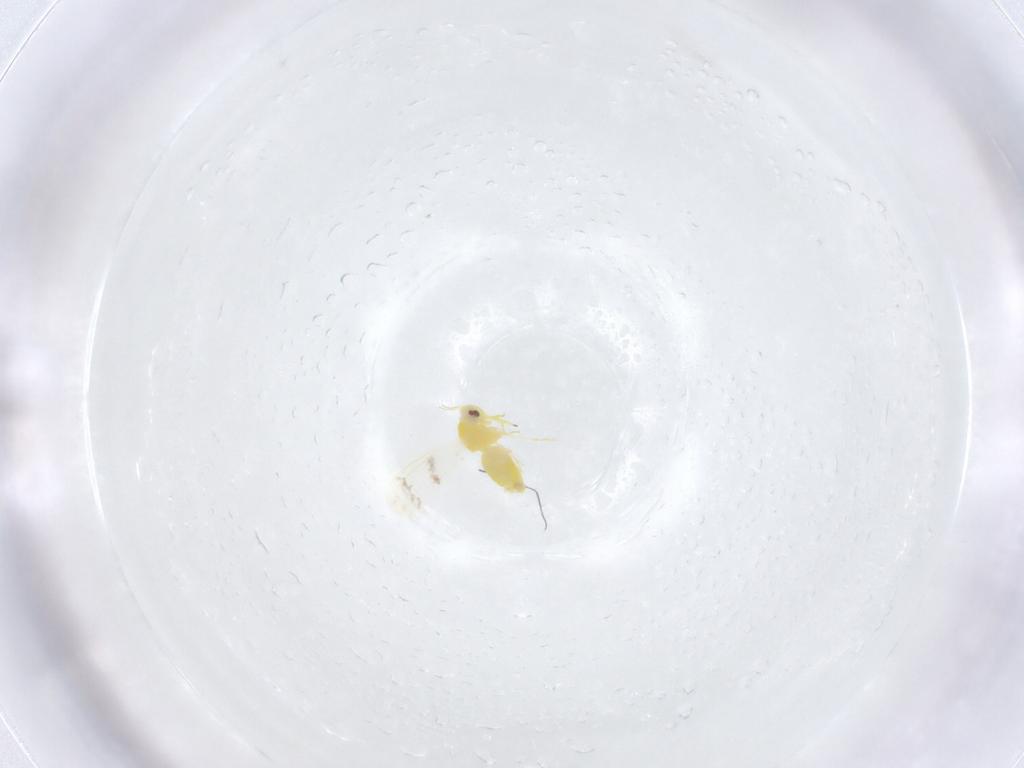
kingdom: Animalia
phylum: Arthropoda
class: Insecta
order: Hemiptera
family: Aleyrodidae
